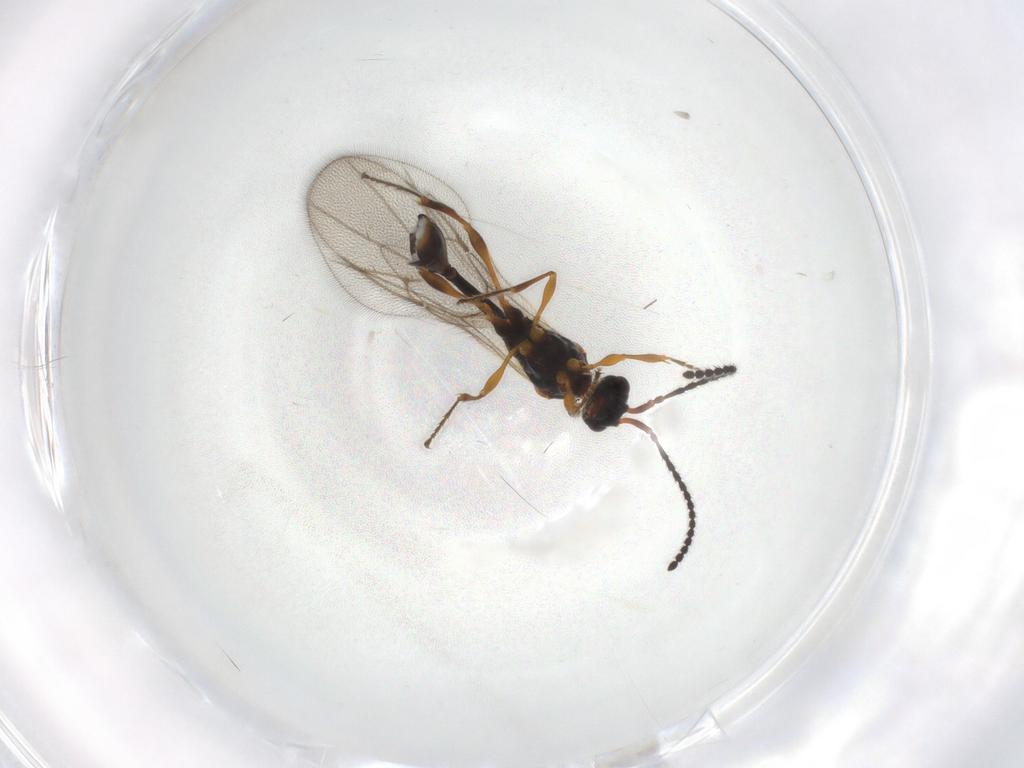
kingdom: Animalia
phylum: Arthropoda
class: Insecta
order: Hymenoptera
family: Diapriidae
